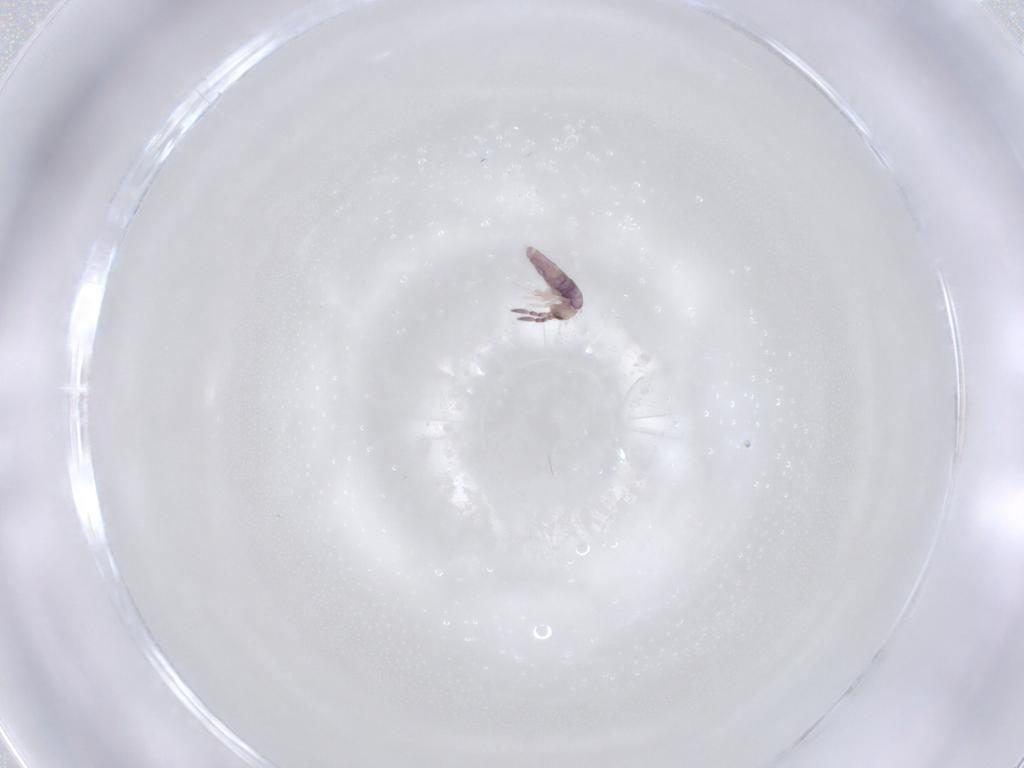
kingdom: Animalia
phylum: Arthropoda
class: Collembola
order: Entomobryomorpha
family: Entomobryidae
